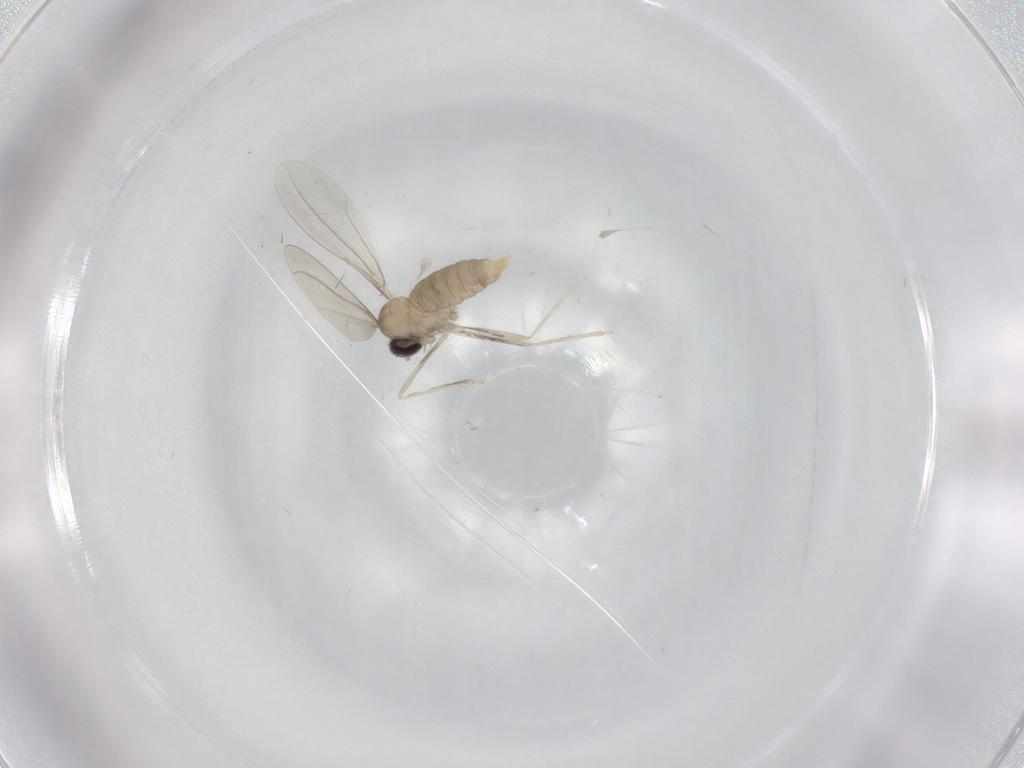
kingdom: Animalia
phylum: Arthropoda
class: Insecta
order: Diptera
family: Cecidomyiidae
